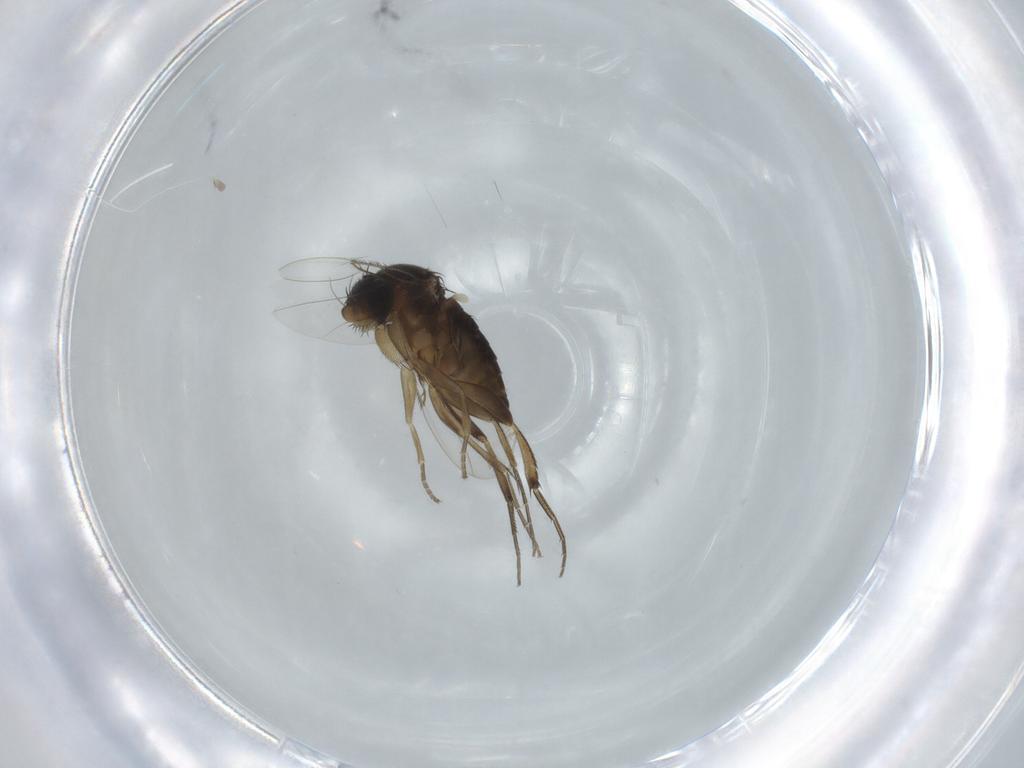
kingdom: Animalia
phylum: Arthropoda
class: Insecta
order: Diptera
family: Phoridae
